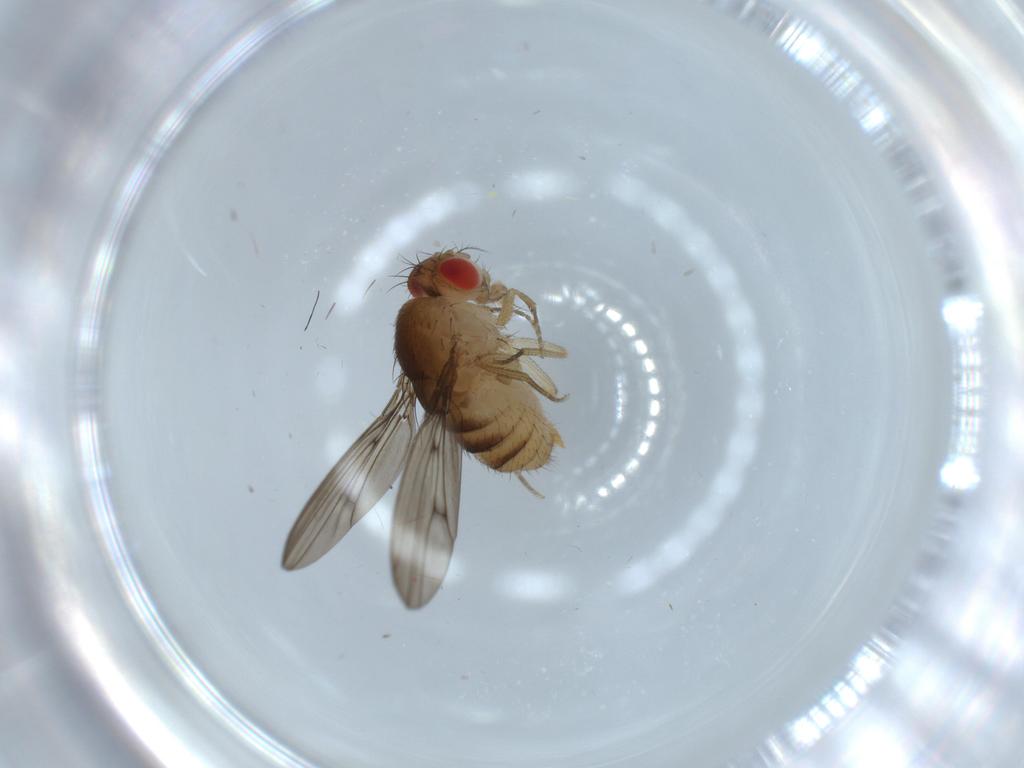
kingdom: Animalia
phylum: Arthropoda
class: Insecta
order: Diptera
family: Drosophilidae
